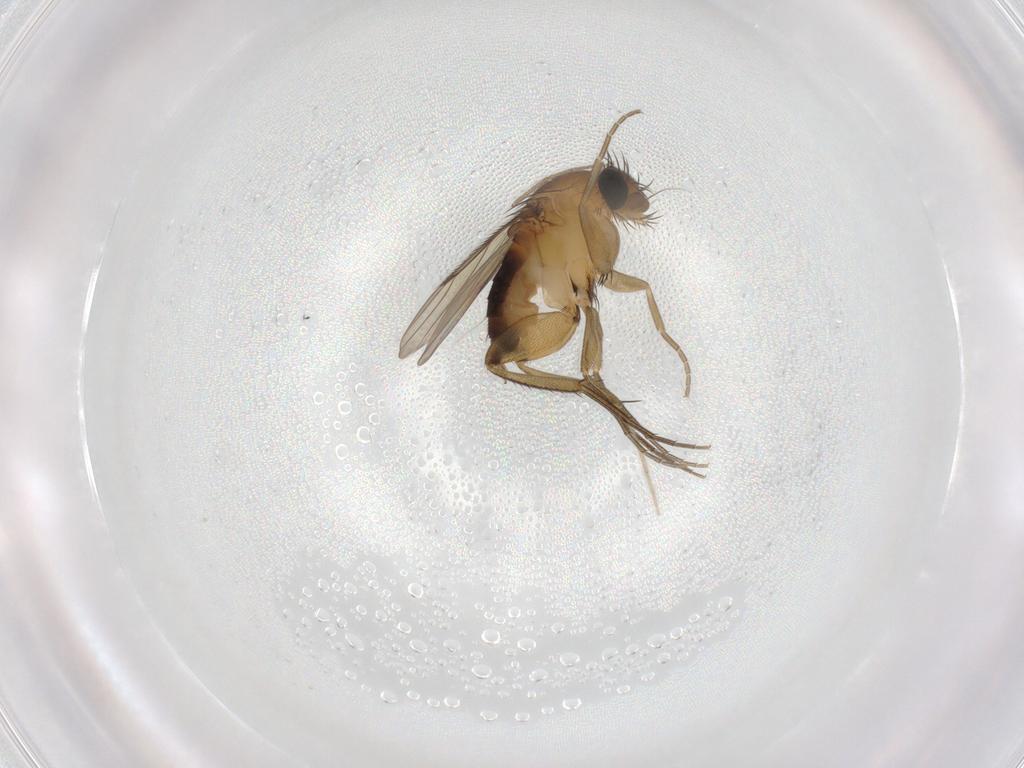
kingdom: Animalia
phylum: Arthropoda
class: Insecta
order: Diptera
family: Phoridae
